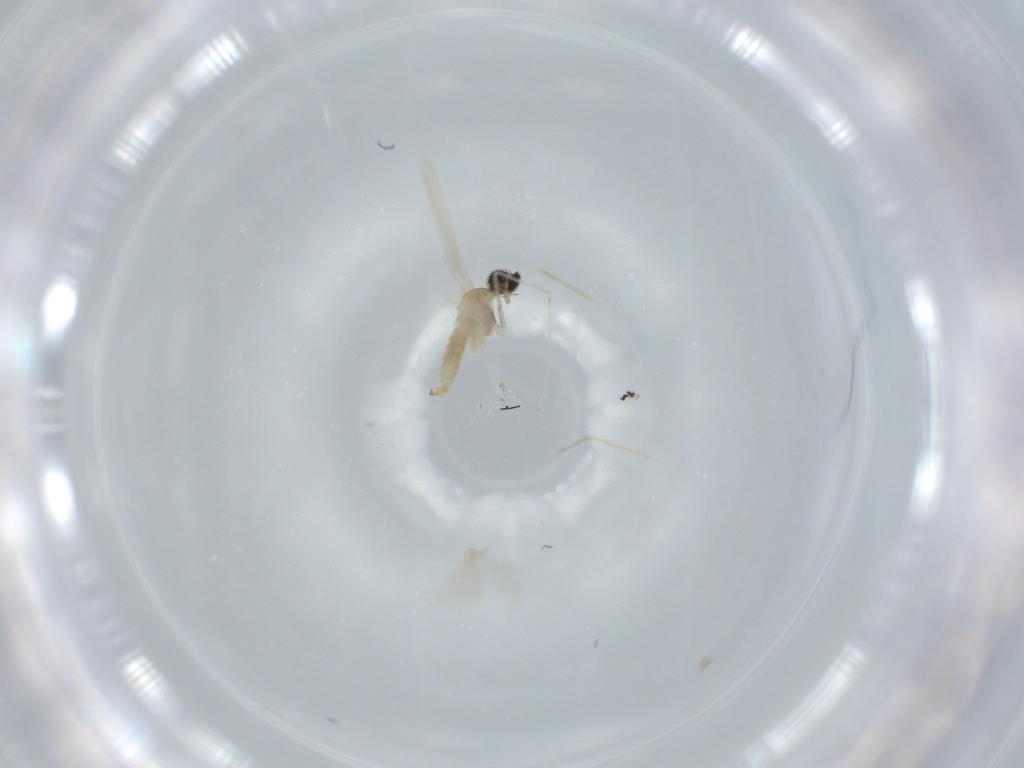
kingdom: Animalia
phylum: Arthropoda
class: Insecta
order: Diptera
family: Cecidomyiidae
